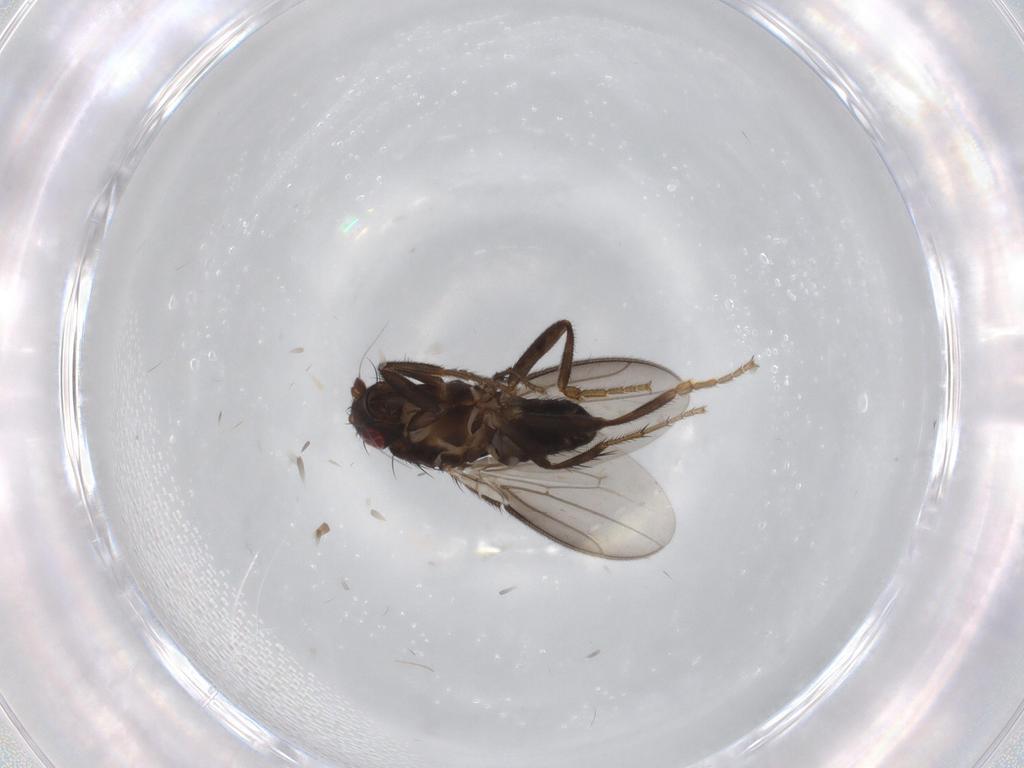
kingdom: Animalia
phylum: Arthropoda
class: Insecta
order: Diptera
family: Sphaeroceridae
